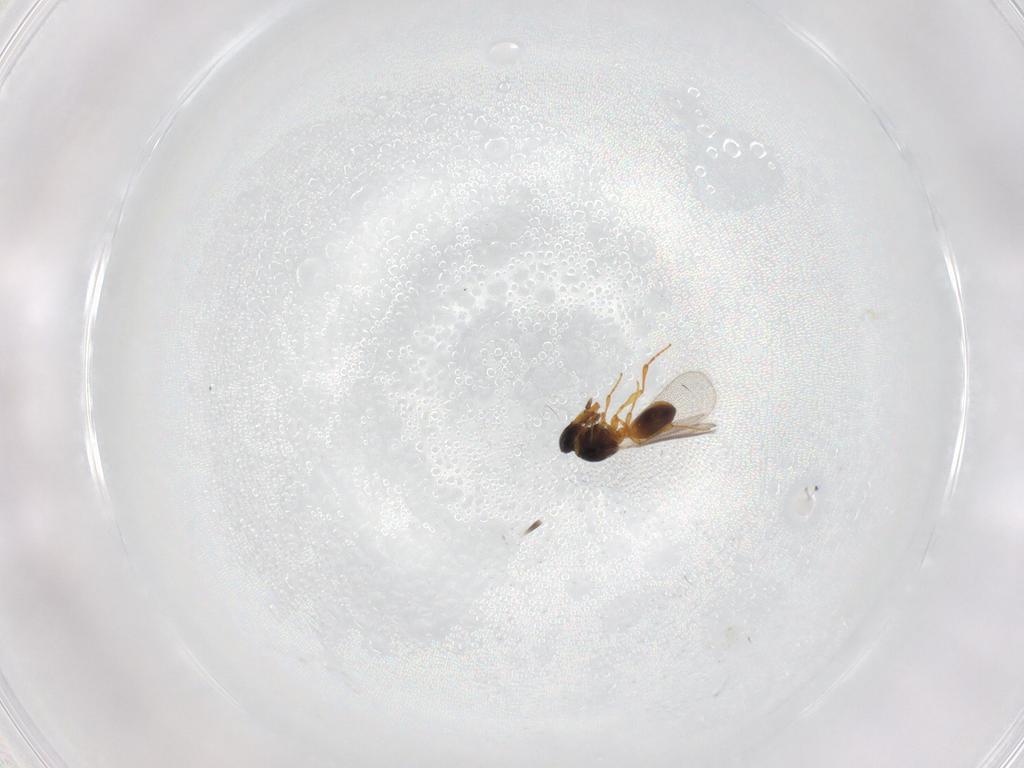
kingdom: Animalia
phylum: Arthropoda
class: Insecta
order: Hymenoptera
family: Platygastridae
